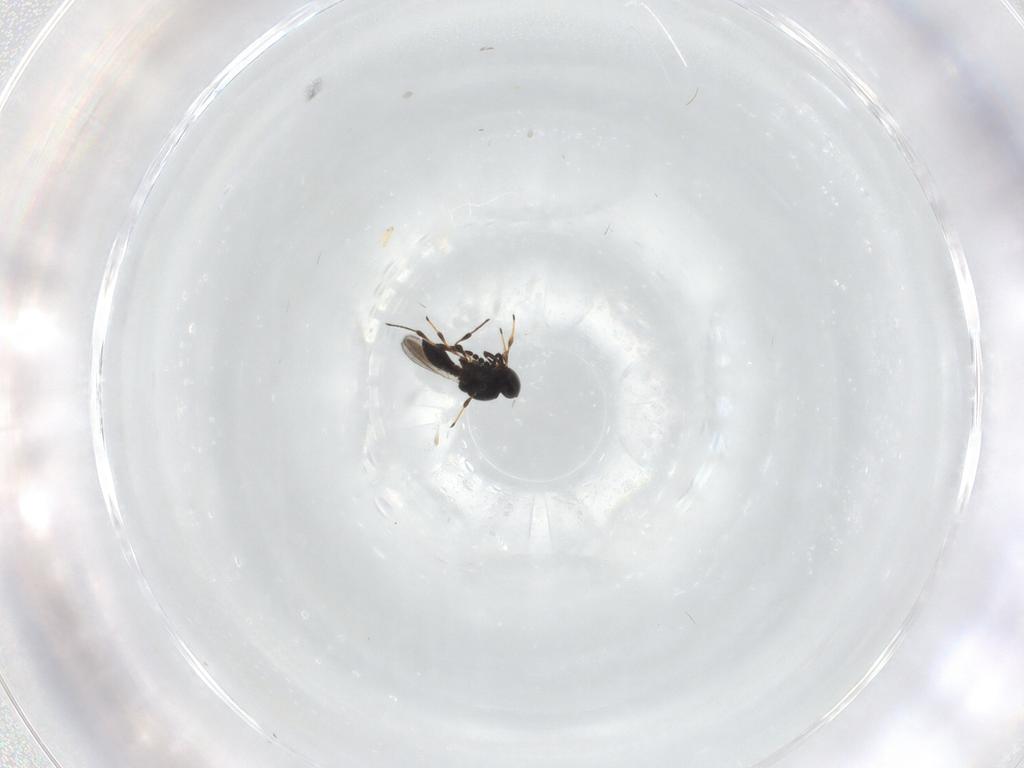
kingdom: Animalia
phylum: Arthropoda
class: Insecta
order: Hymenoptera
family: Platygastridae
